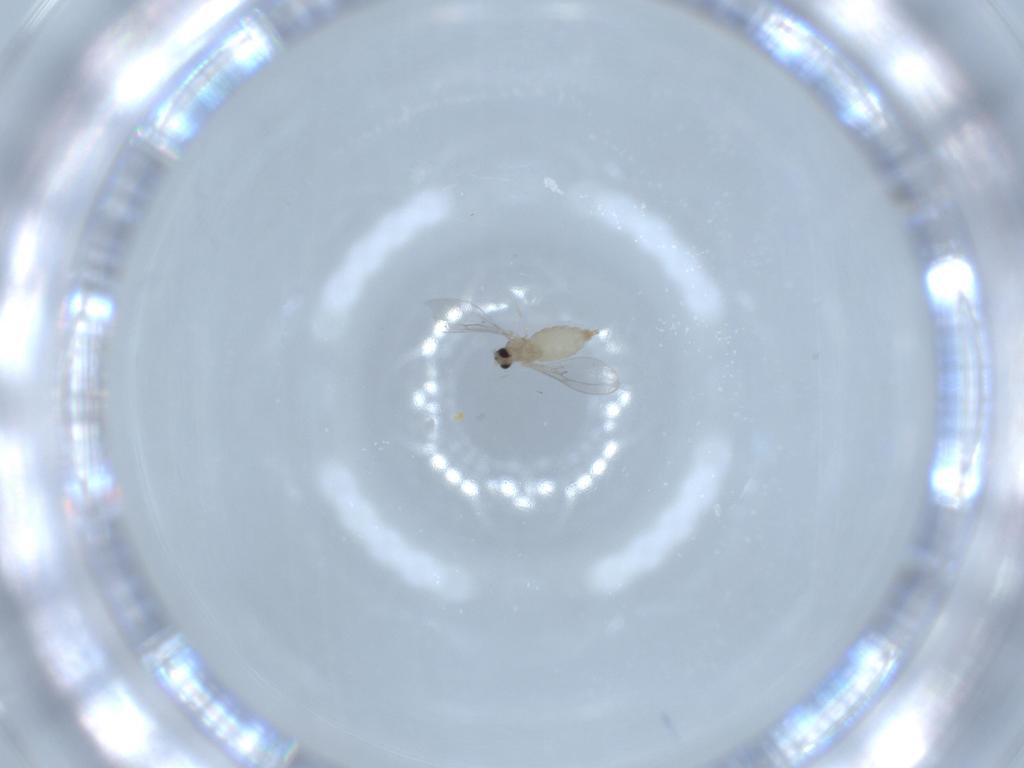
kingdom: Animalia
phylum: Arthropoda
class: Insecta
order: Diptera
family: Cecidomyiidae
